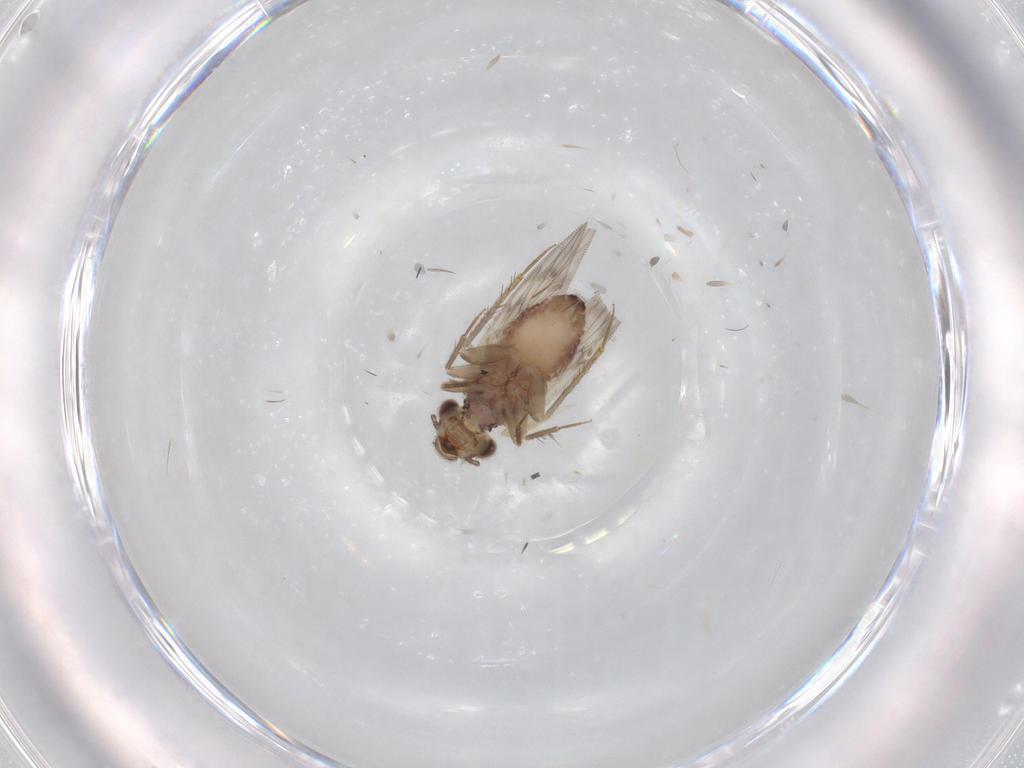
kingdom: Animalia
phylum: Arthropoda
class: Insecta
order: Psocodea
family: Lepidopsocidae
